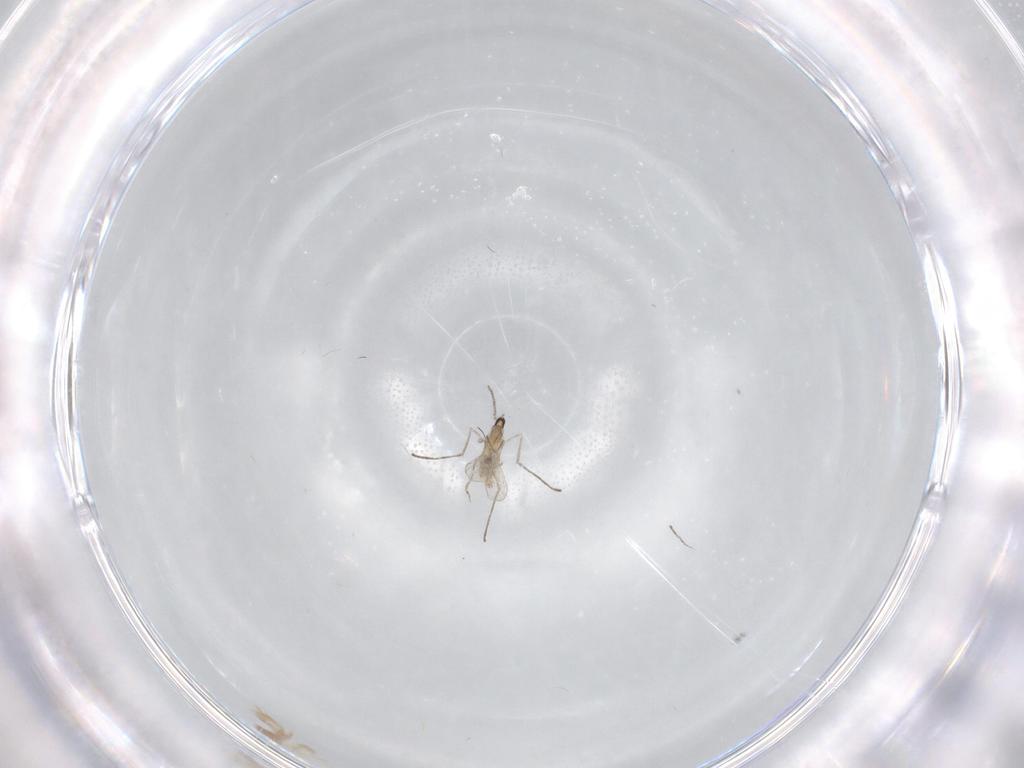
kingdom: Animalia
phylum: Arthropoda
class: Insecta
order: Diptera
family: Cecidomyiidae
